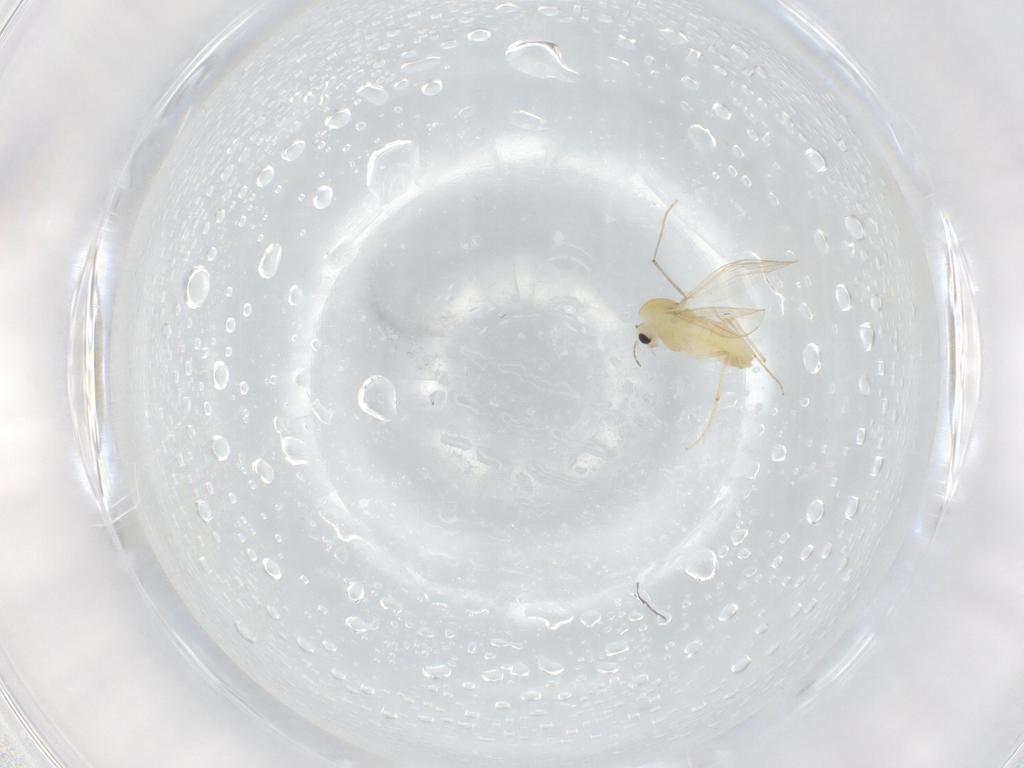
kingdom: Animalia
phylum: Arthropoda
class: Insecta
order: Diptera
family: Chironomidae
